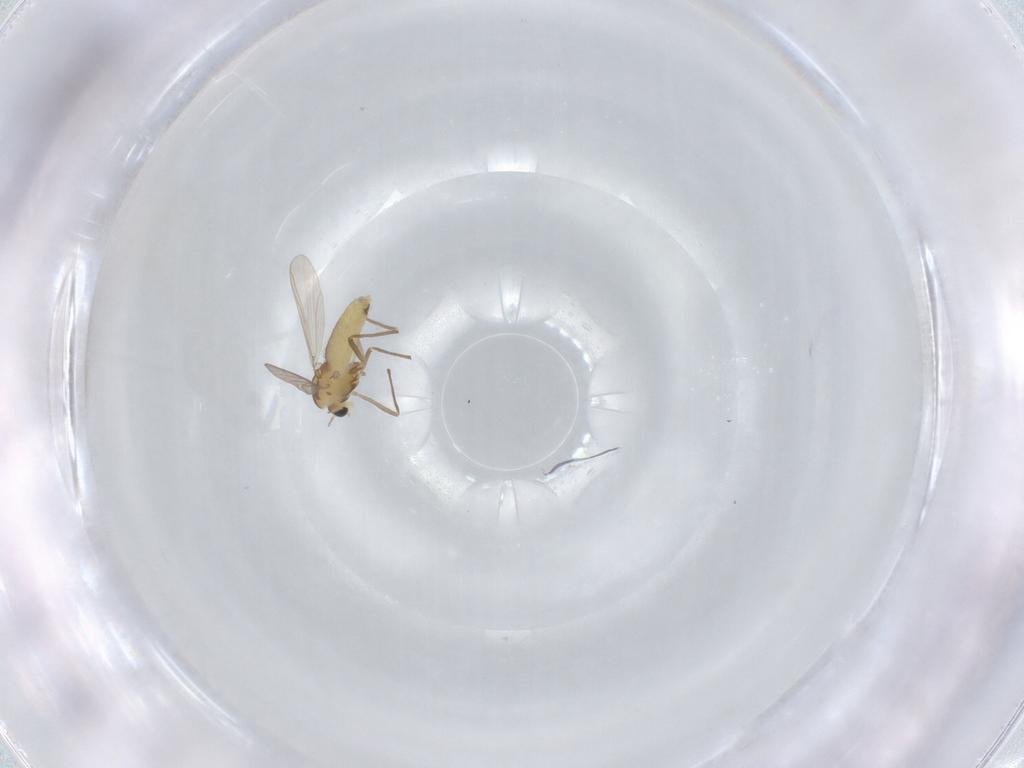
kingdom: Animalia
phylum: Arthropoda
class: Insecta
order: Diptera
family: Chironomidae
